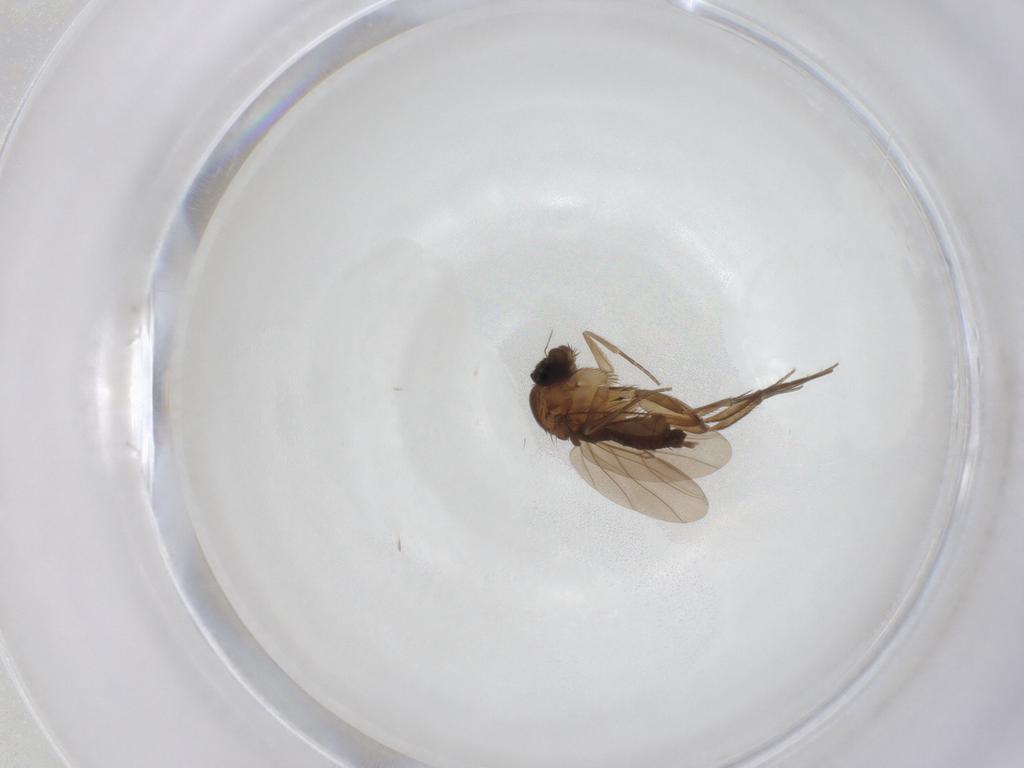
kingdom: Animalia
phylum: Arthropoda
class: Insecta
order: Diptera
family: Phoridae
